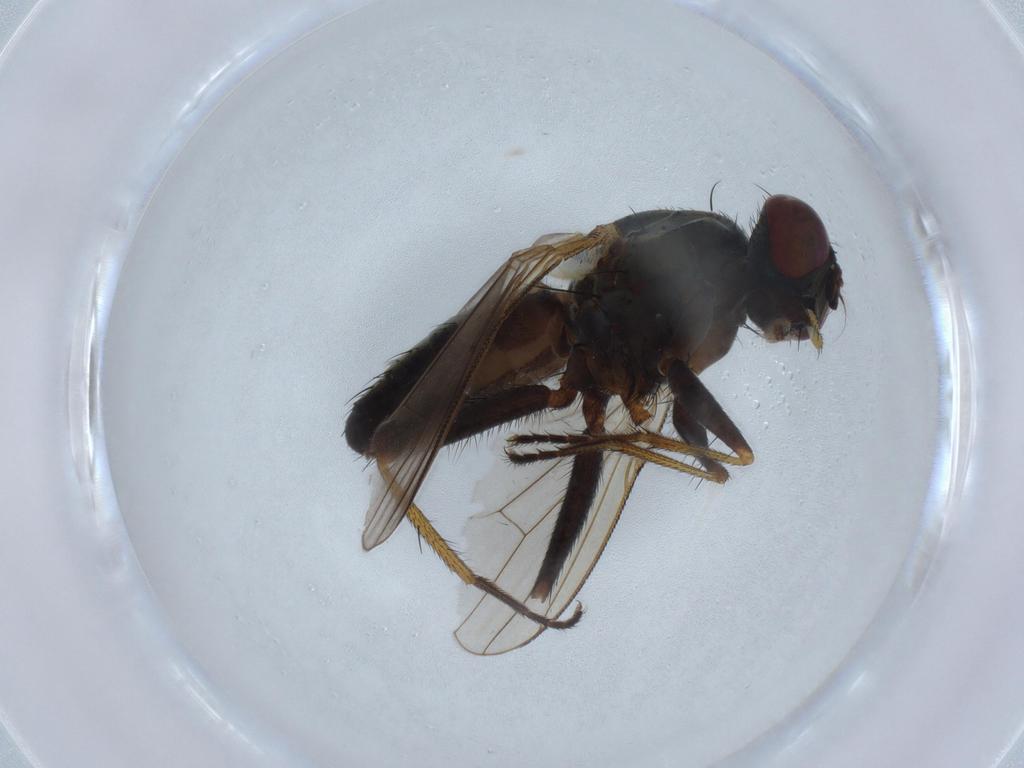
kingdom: Animalia
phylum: Arthropoda
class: Insecta
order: Diptera
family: Muscidae
